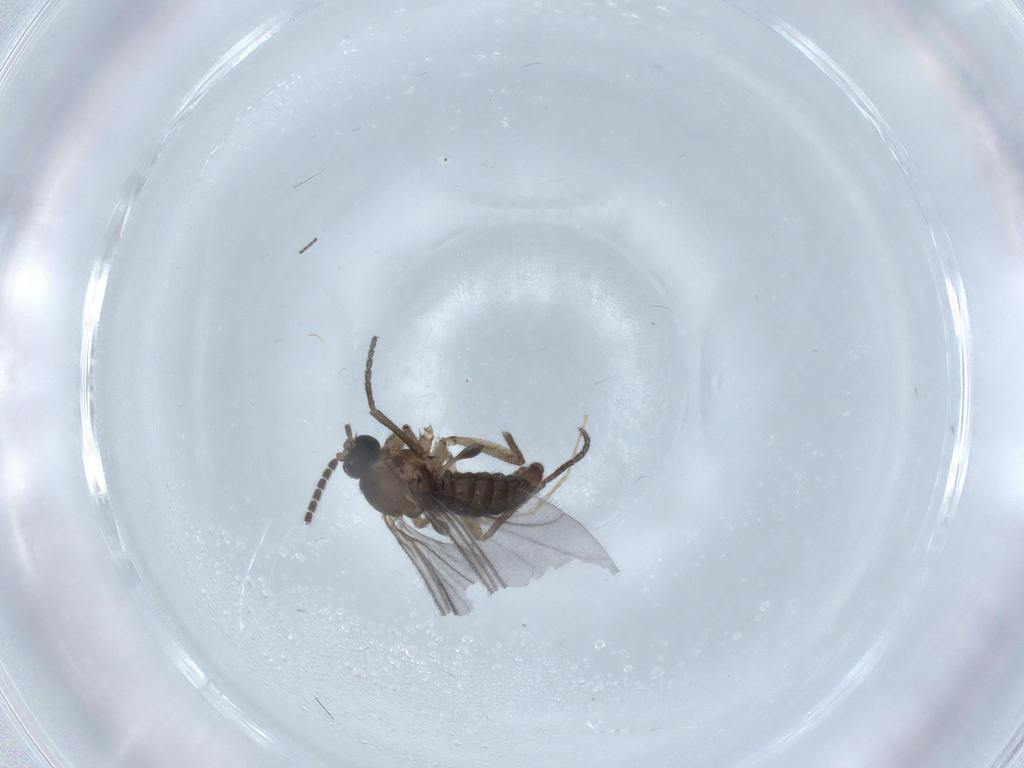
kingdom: Animalia
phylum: Arthropoda
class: Insecta
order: Diptera
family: Sciaridae
